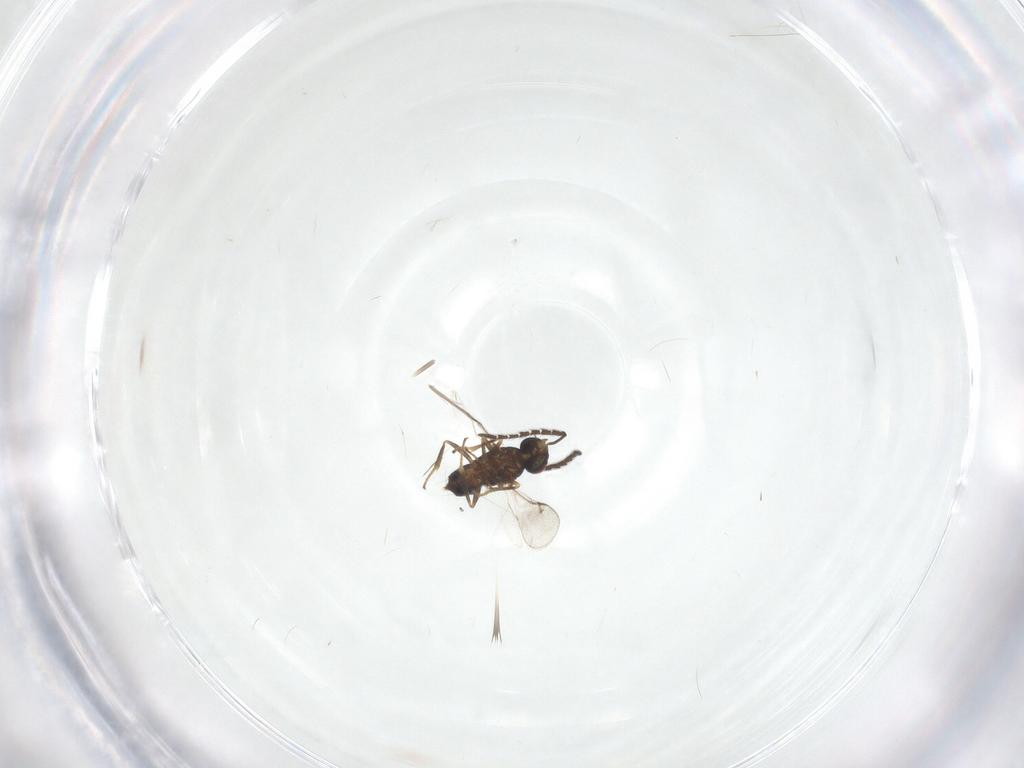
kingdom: Animalia
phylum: Arthropoda
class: Insecta
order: Hymenoptera
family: Encyrtidae
